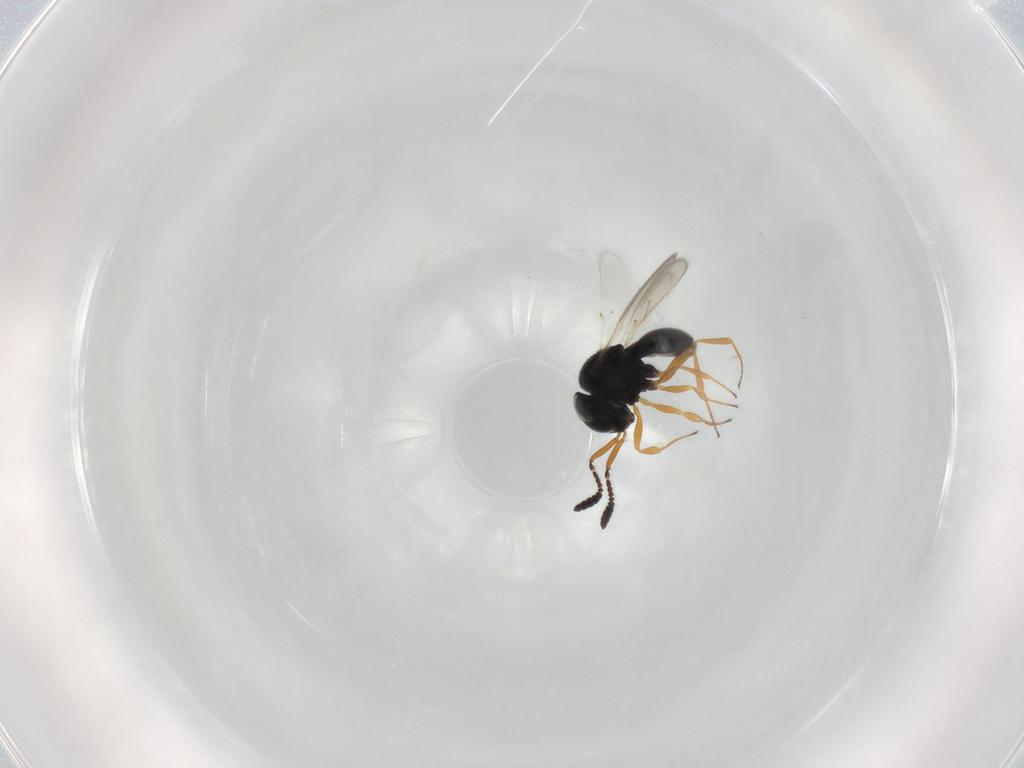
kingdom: Animalia
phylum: Arthropoda
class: Insecta
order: Hymenoptera
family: Scelionidae
